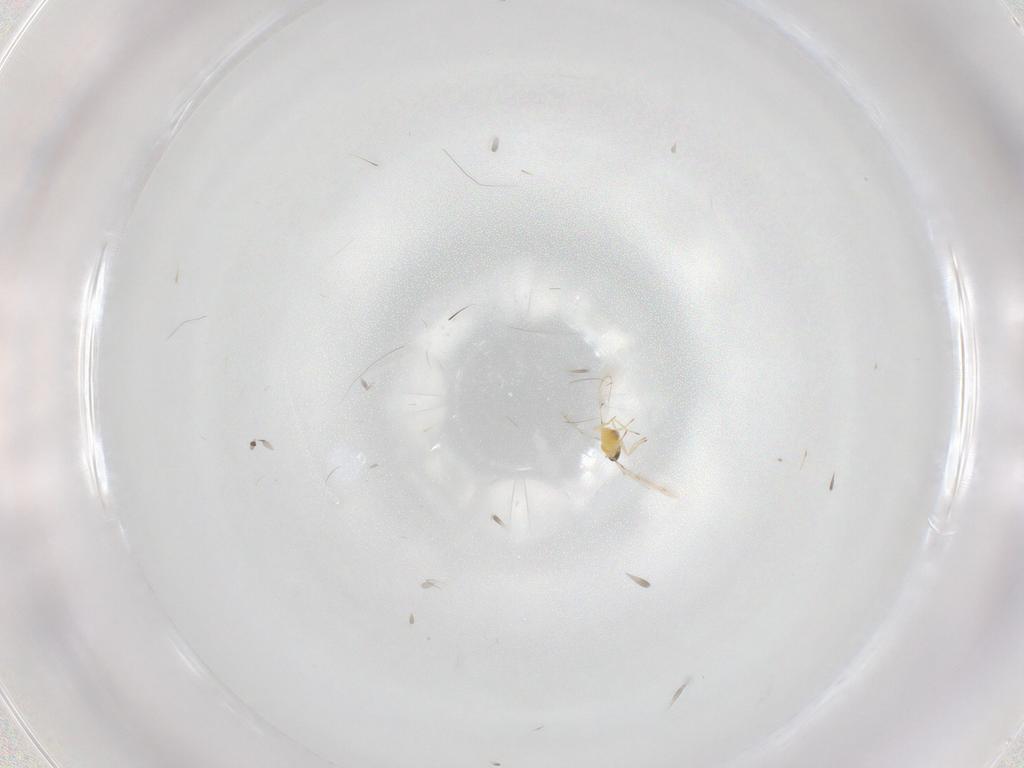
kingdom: Animalia
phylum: Arthropoda
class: Insecta
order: Hymenoptera
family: Trichogrammatidae
